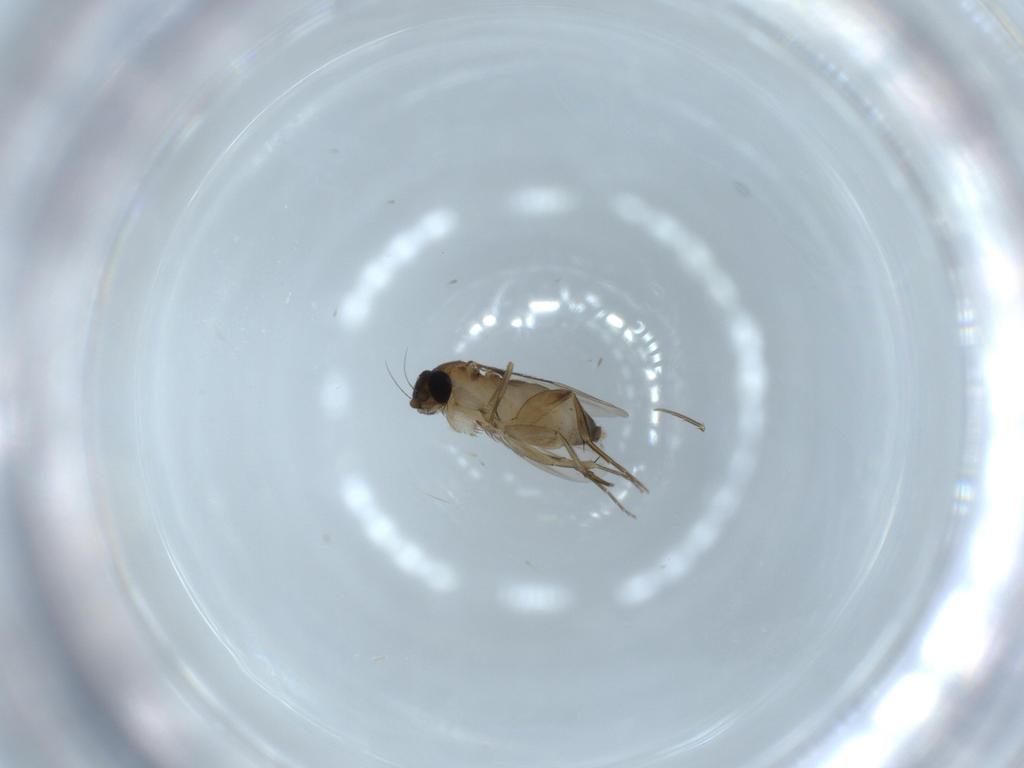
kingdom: Animalia
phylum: Arthropoda
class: Insecta
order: Diptera
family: Phoridae
